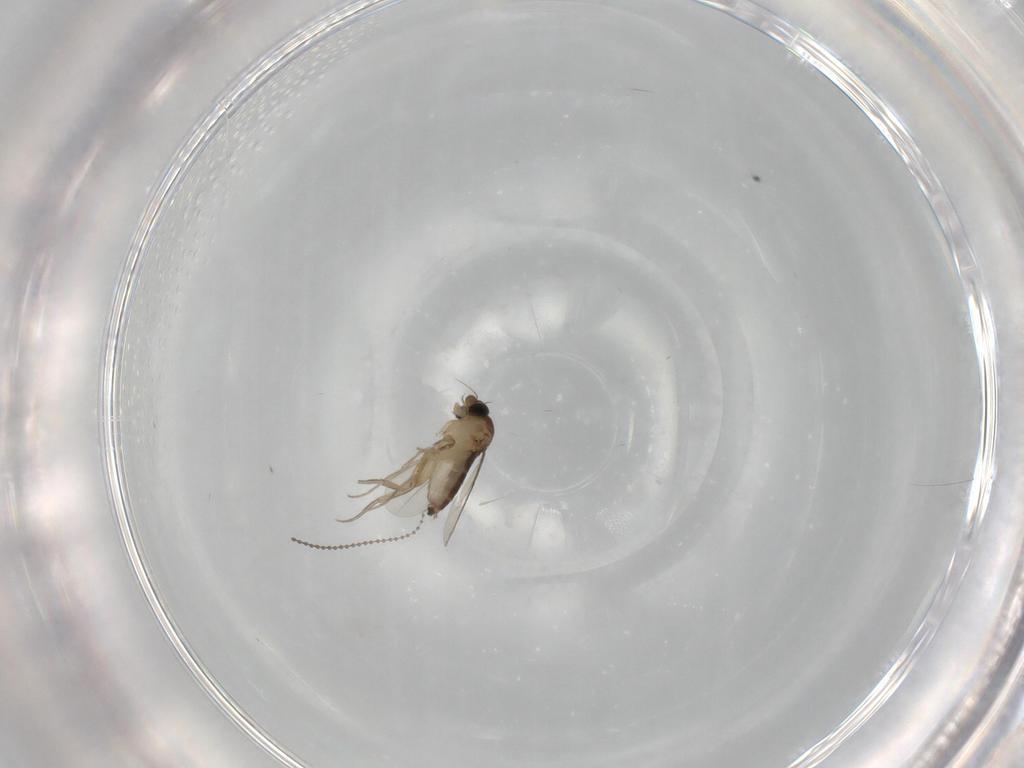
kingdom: Animalia
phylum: Arthropoda
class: Insecta
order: Diptera
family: Phoridae
